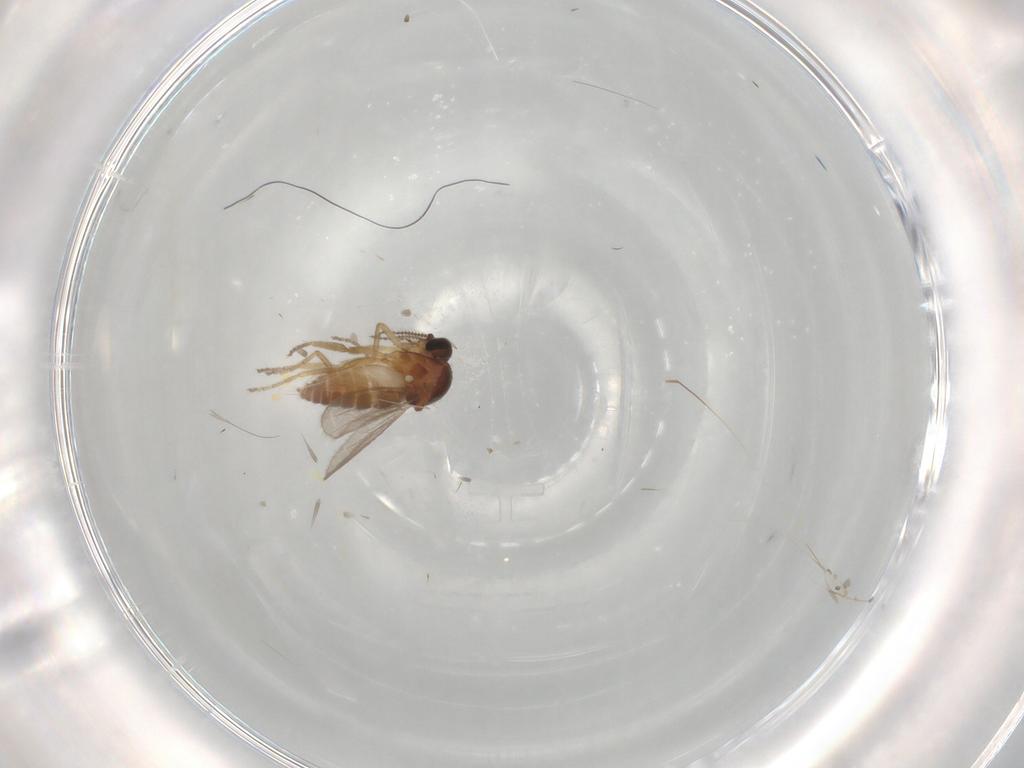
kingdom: Animalia
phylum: Arthropoda
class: Insecta
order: Diptera
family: Ceratopogonidae
